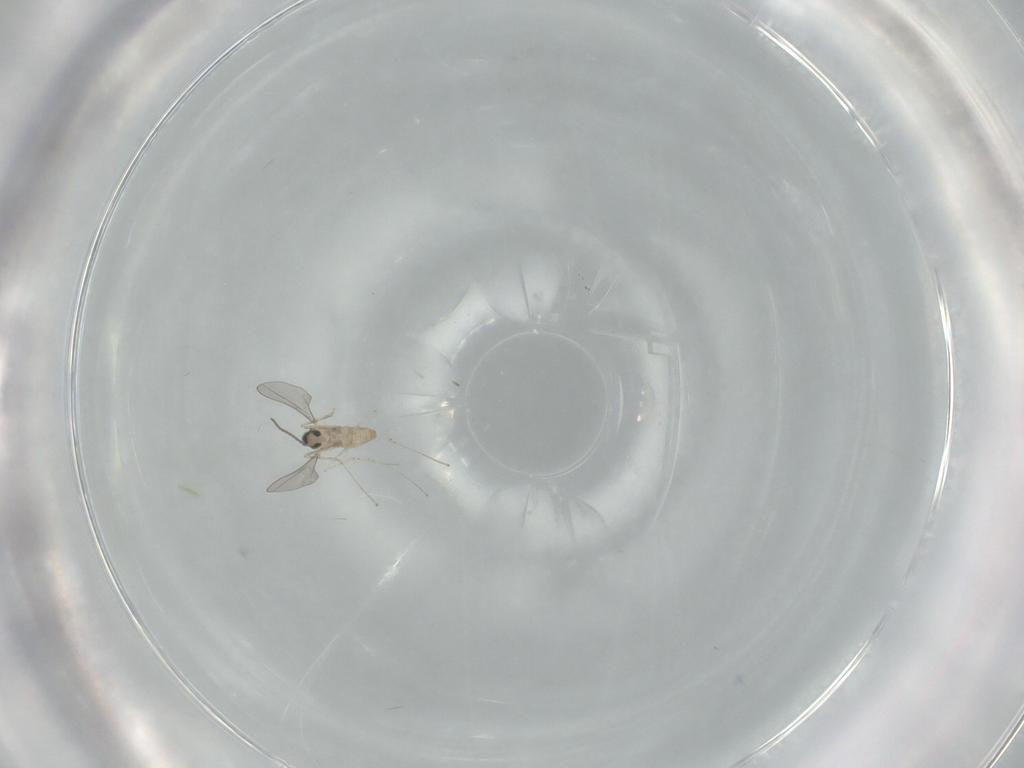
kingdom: Animalia
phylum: Arthropoda
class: Insecta
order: Diptera
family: Cecidomyiidae
